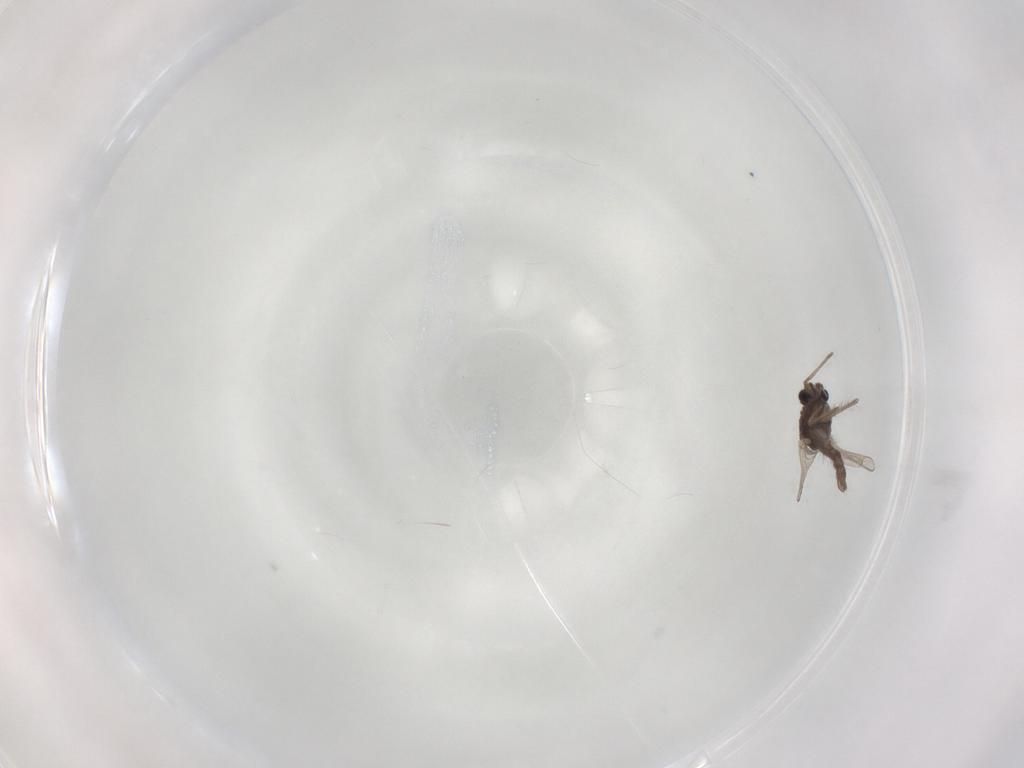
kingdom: Animalia
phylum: Arthropoda
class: Insecta
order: Diptera
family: Chironomidae
